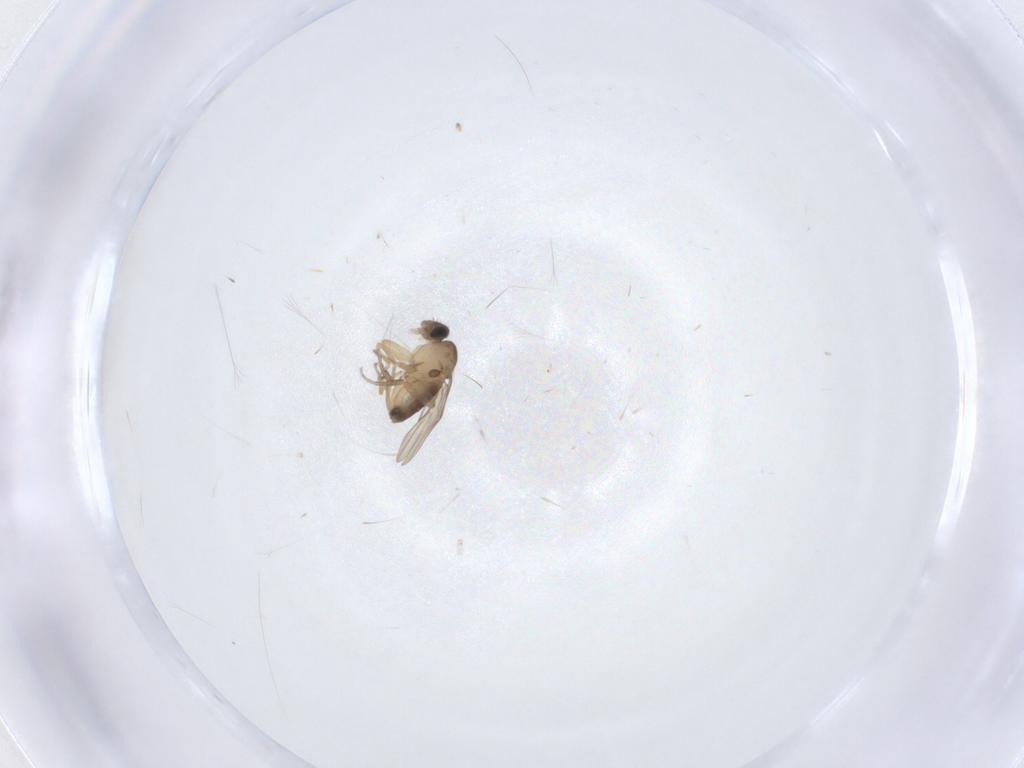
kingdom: Animalia
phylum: Arthropoda
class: Insecta
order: Diptera
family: Phoridae
